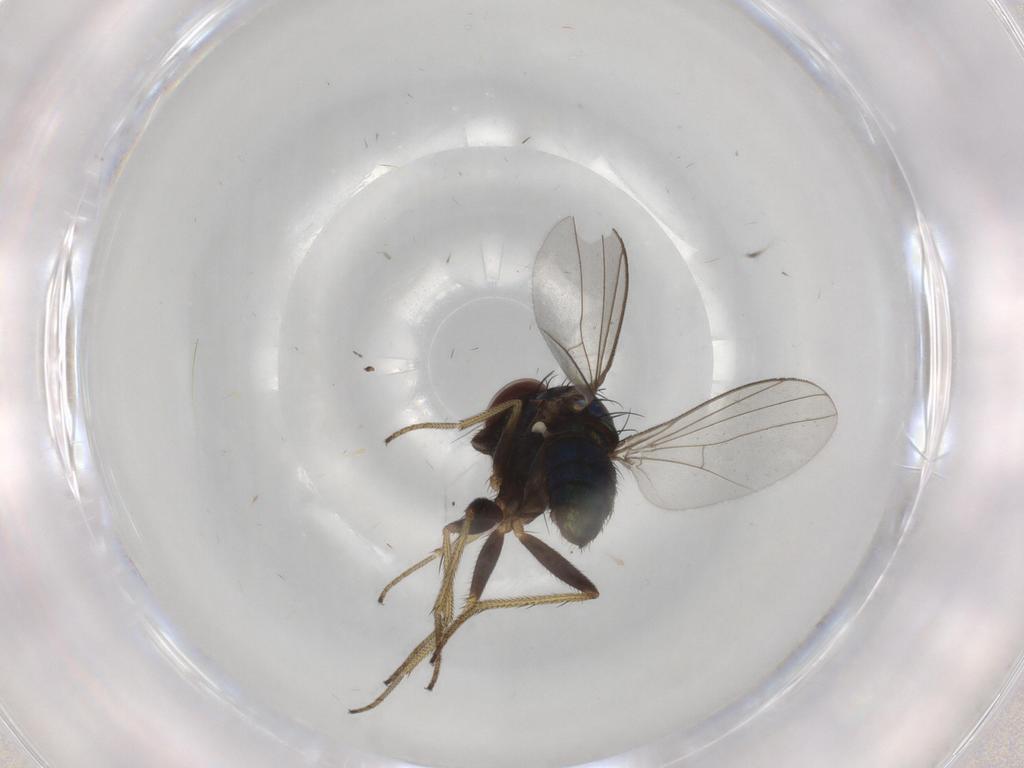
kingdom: Animalia
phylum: Arthropoda
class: Insecta
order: Diptera
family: Dolichopodidae
